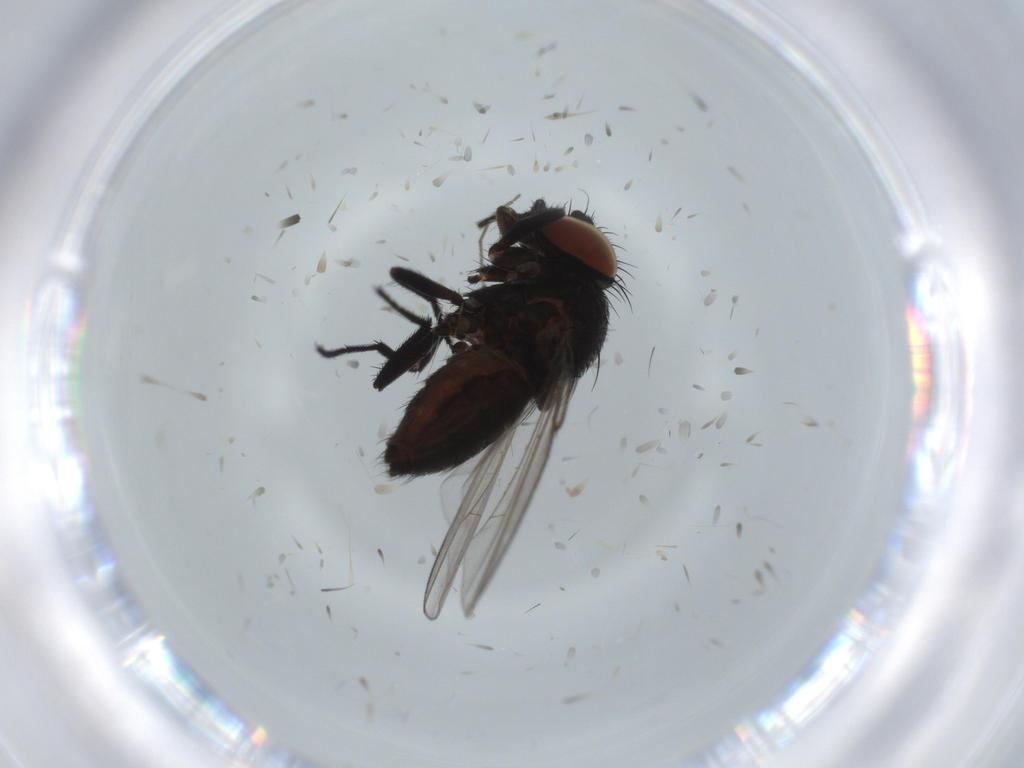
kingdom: Animalia
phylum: Arthropoda
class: Insecta
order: Diptera
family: Milichiidae
